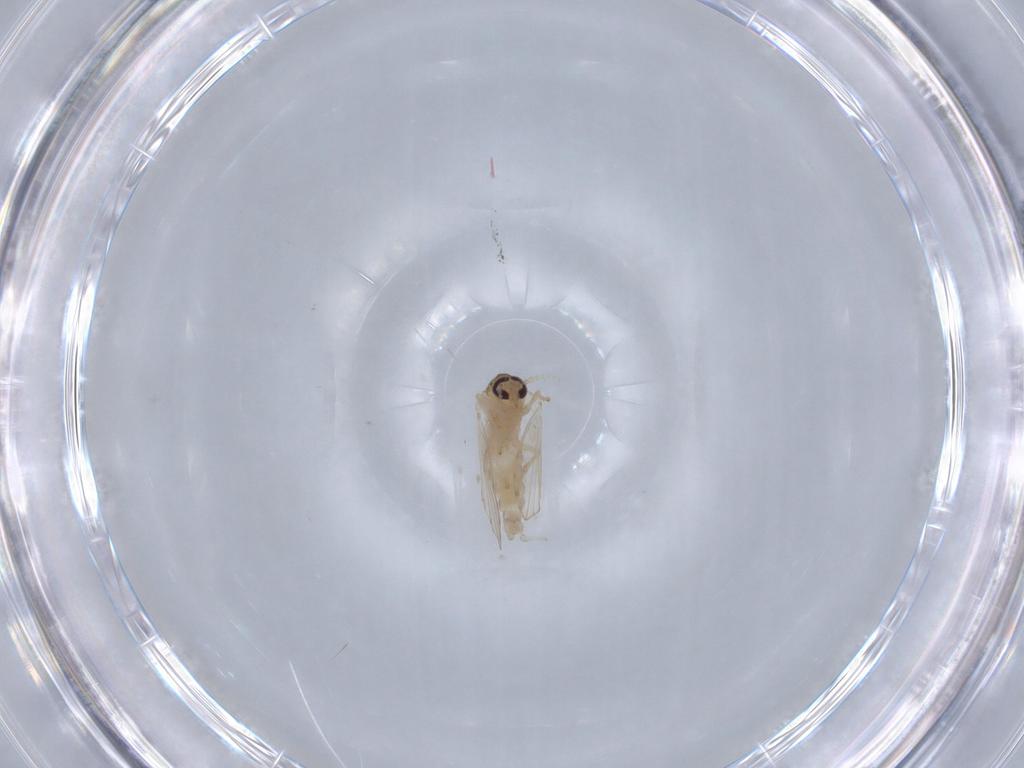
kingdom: Animalia
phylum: Arthropoda
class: Insecta
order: Diptera
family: Psychodidae
